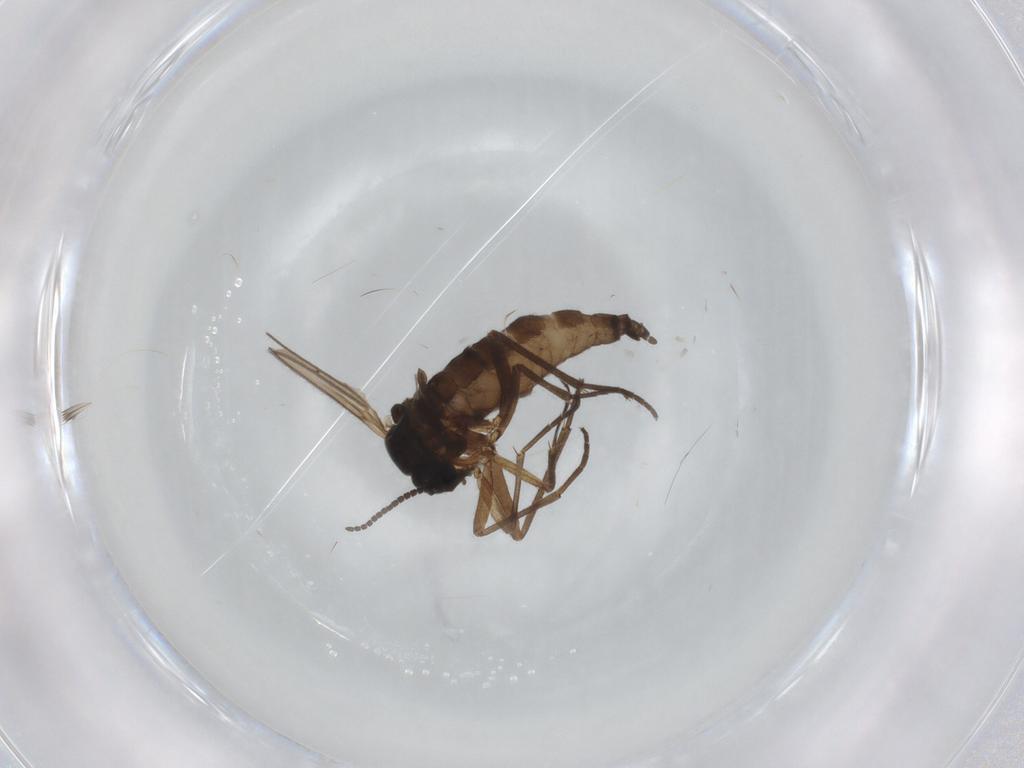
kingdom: Animalia
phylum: Arthropoda
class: Insecta
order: Diptera
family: Sciaridae
